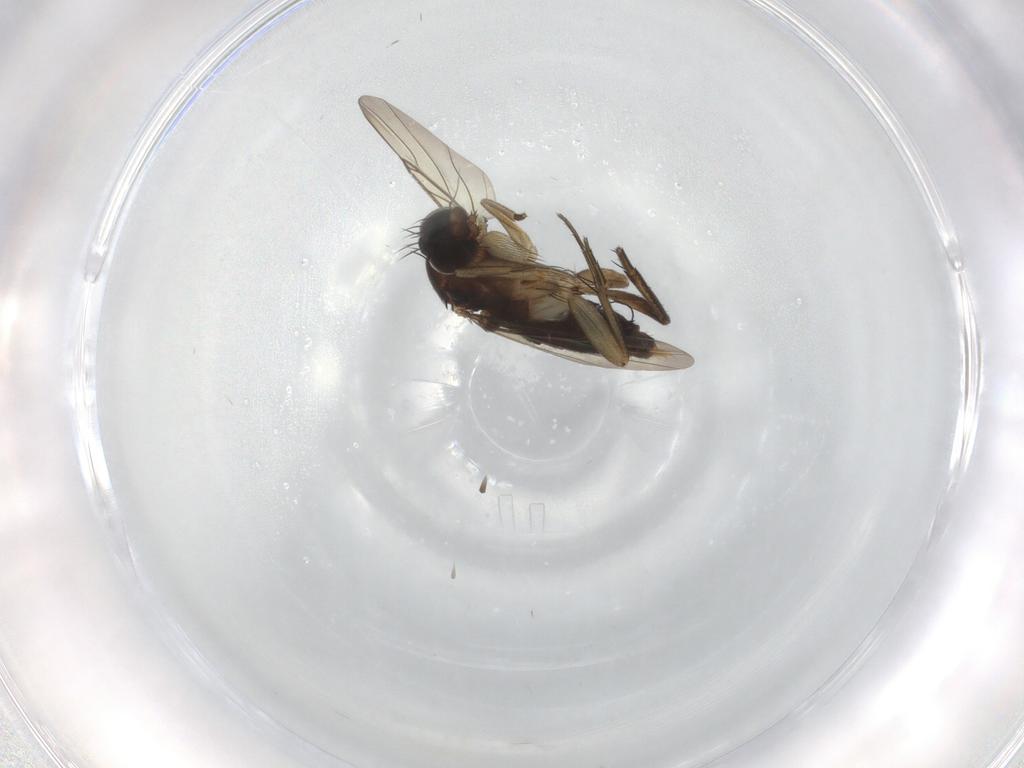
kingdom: Animalia
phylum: Arthropoda
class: Insecta
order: Diptera
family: Phoridae
